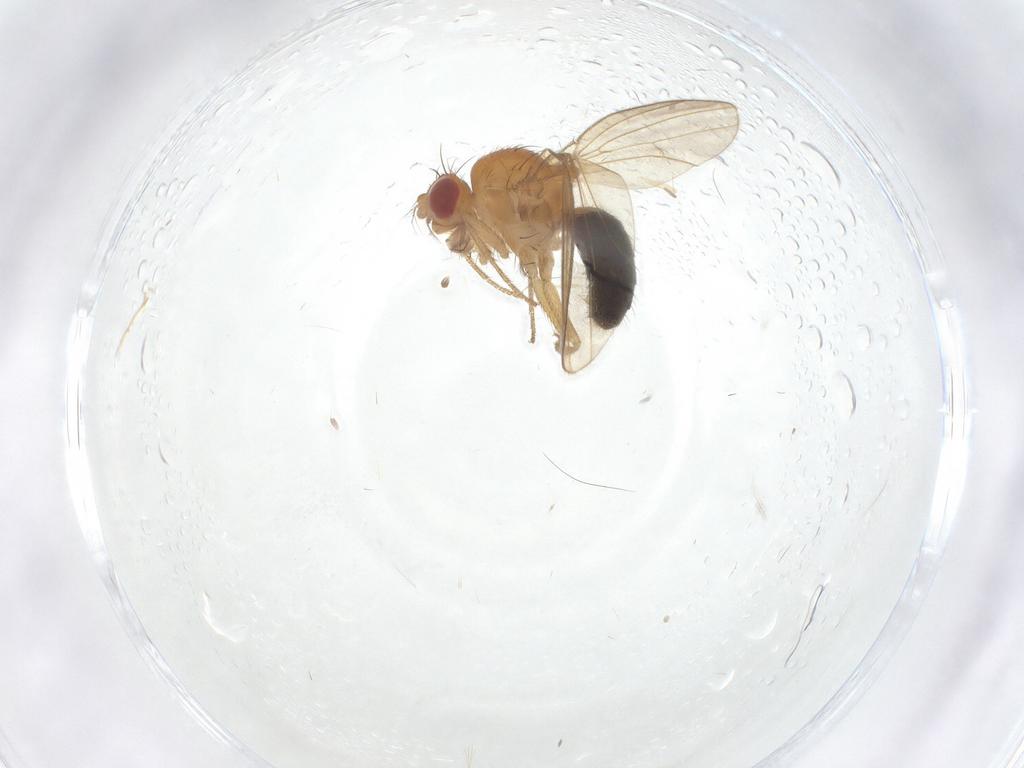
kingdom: Animalia
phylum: Arthropoda
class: Insecta
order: Diptera
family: Drosophilidae
